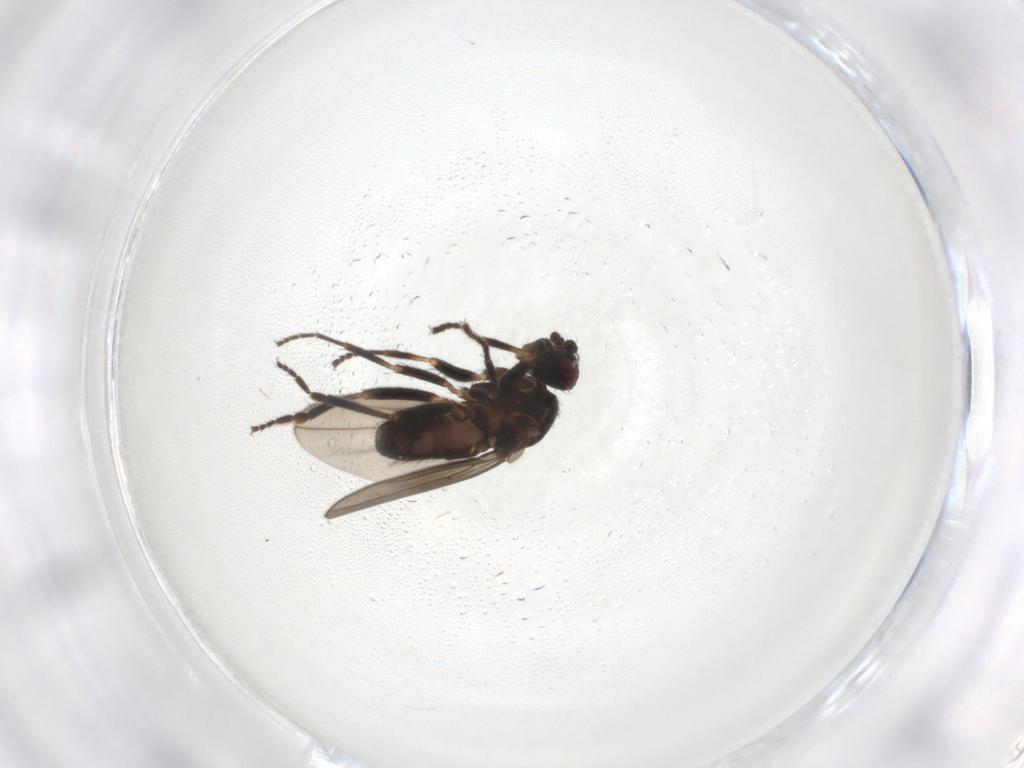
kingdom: Animalia
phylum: Arthropoda
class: Insecta
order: Diptera
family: Sphaeroceridae
